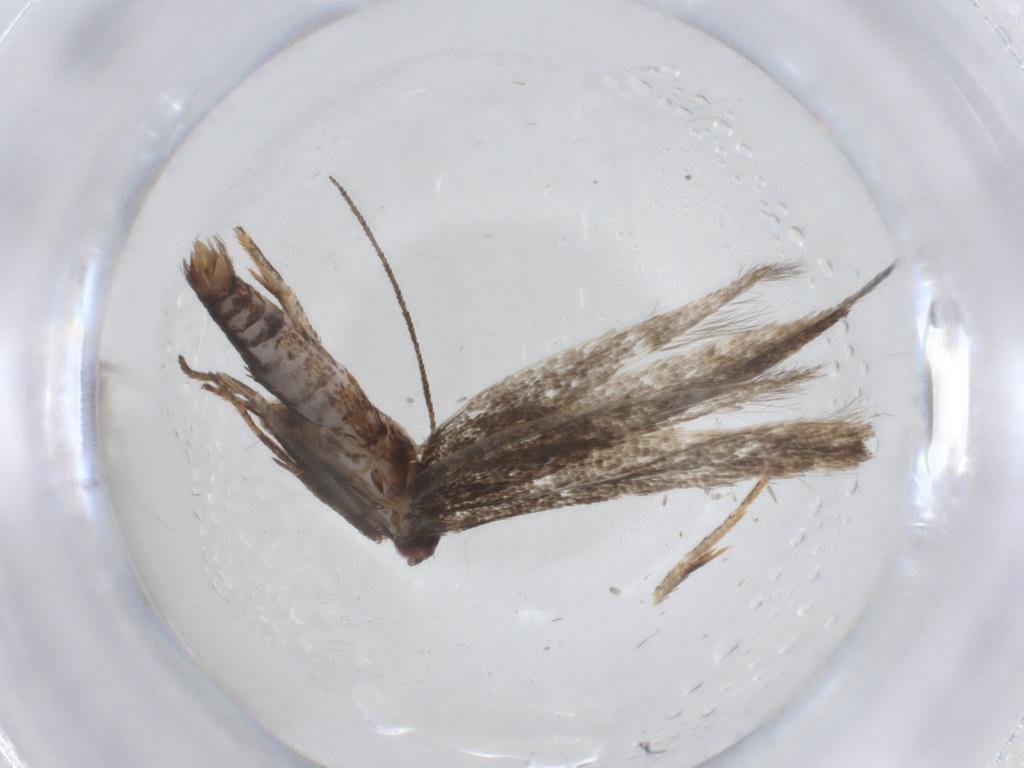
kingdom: Animalia
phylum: Arthropoda
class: Insecta
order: Lepidoptera
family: Momphidae
